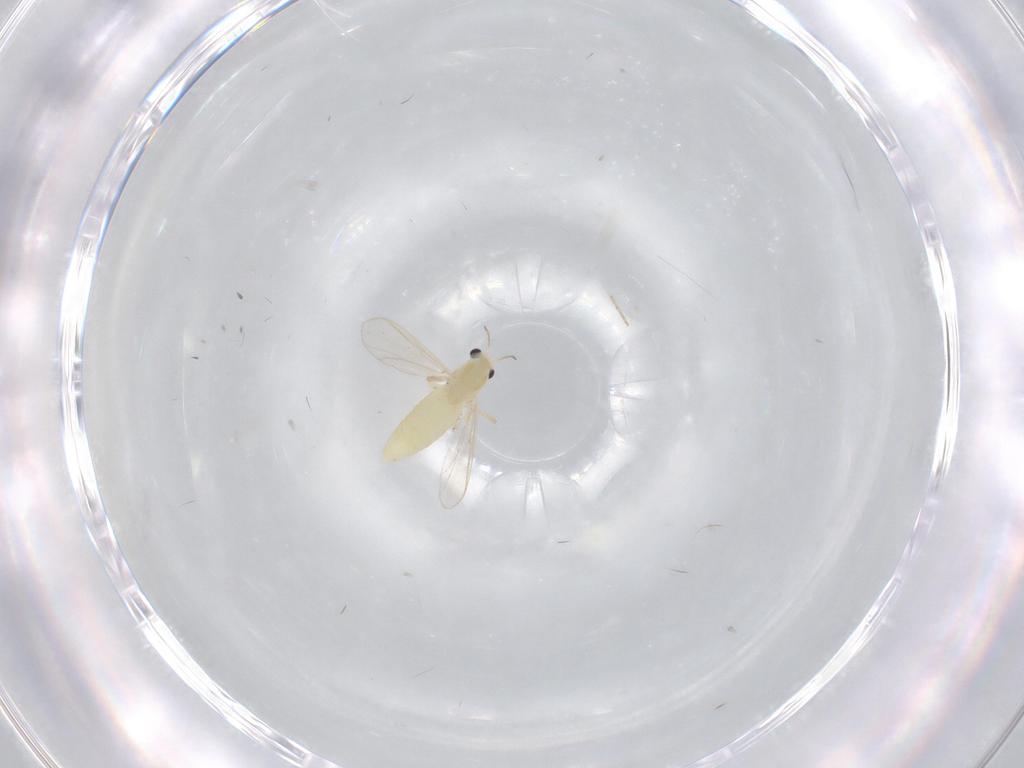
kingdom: Animalia
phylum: Arthropoda
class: Insecta
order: Diptera
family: Chironomidae
